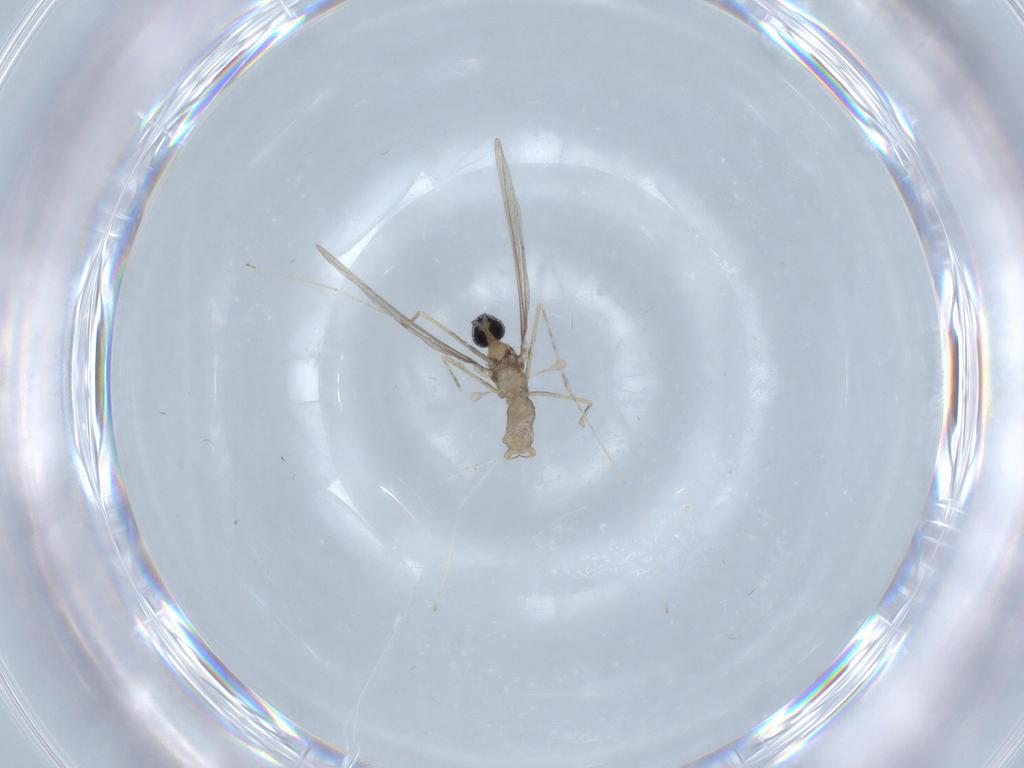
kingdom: Animalia
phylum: Arthropoda
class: Insecta
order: Diptera
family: Cecidomyiidae
